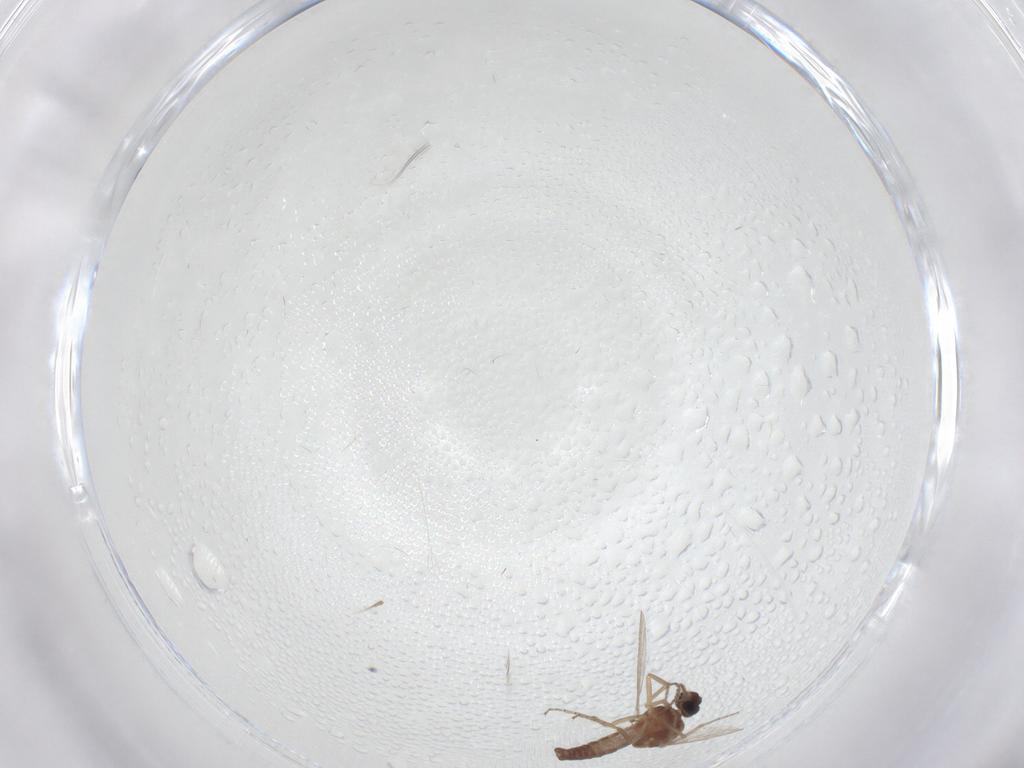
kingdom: Animalia
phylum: Arthropoda
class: Insecta
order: Diptera
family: Ceratopogonidae
